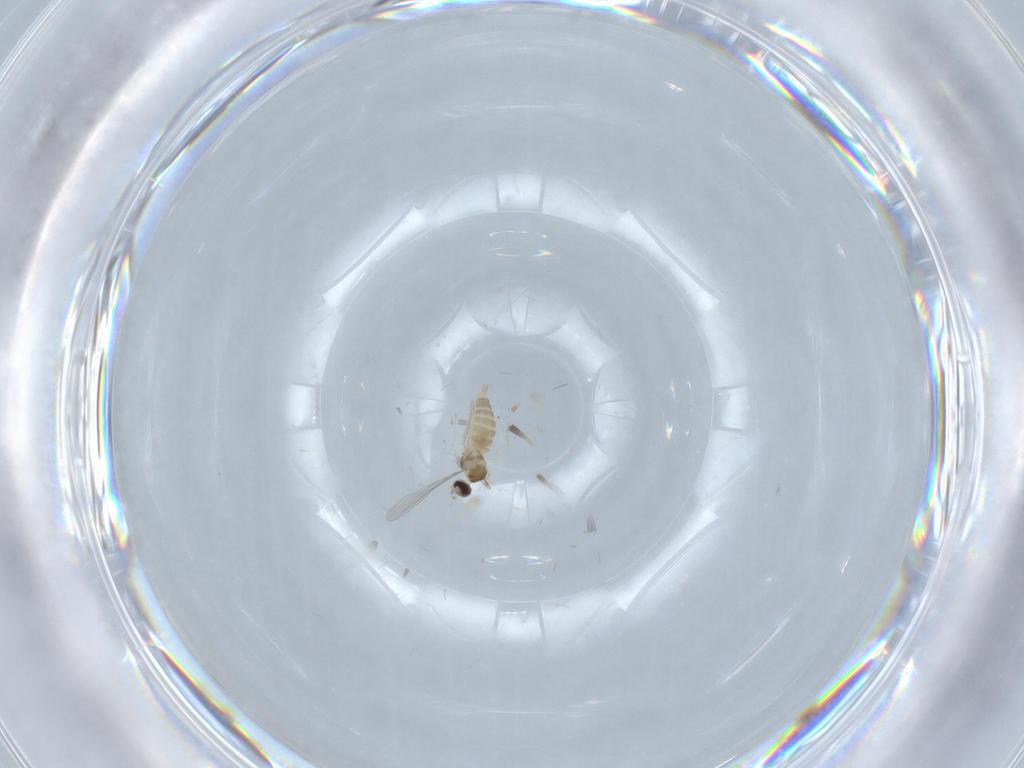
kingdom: Animalia
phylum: Arthropoda
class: Insecta
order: Diptera
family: Cecidomyiidae
